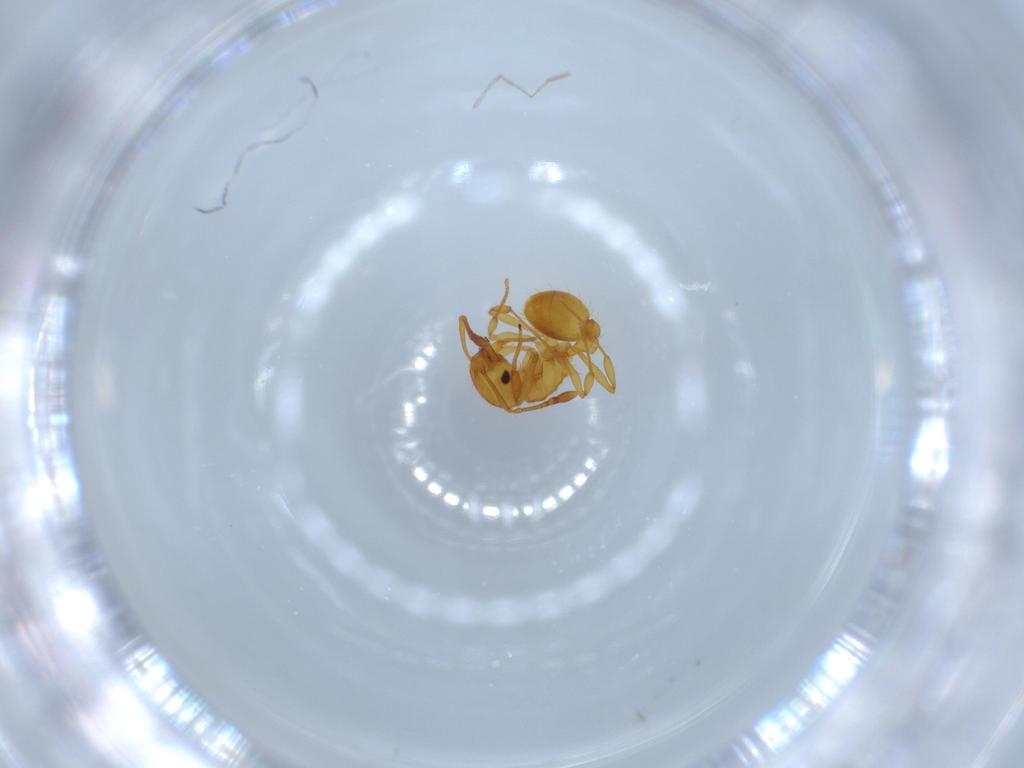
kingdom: Animalia
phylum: Arthropoda
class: Insecta
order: Hymenoptera
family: Formicidae
